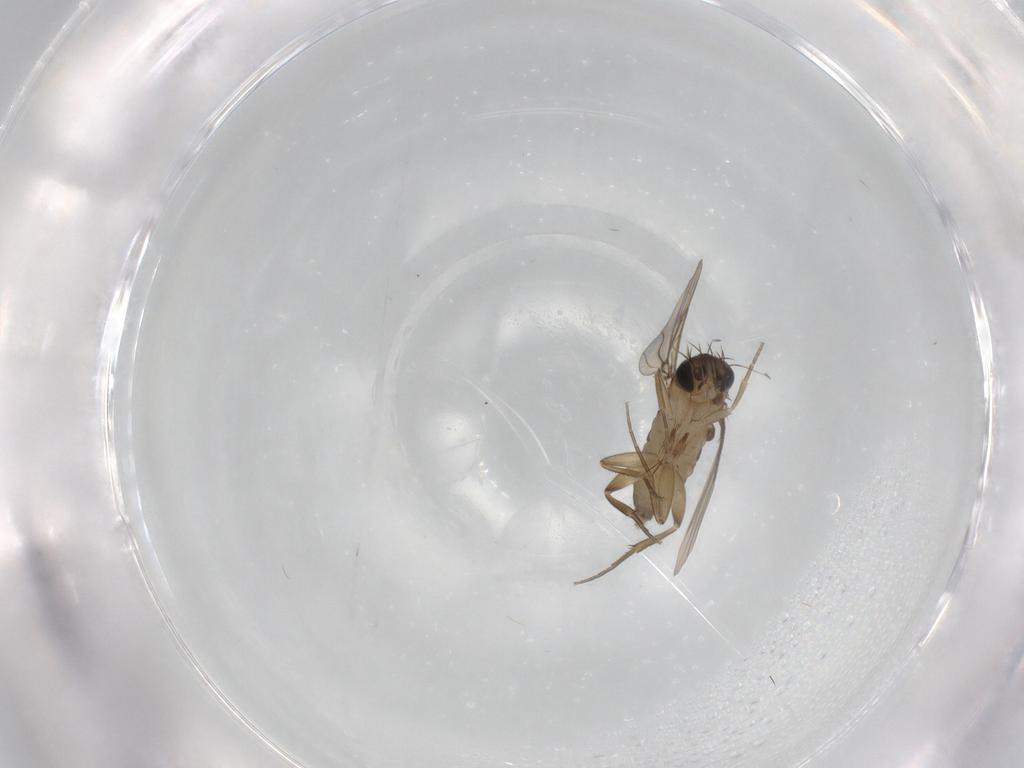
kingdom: Animalia
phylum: Arthropoda
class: Insecta
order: Diptera
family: Phoridae
